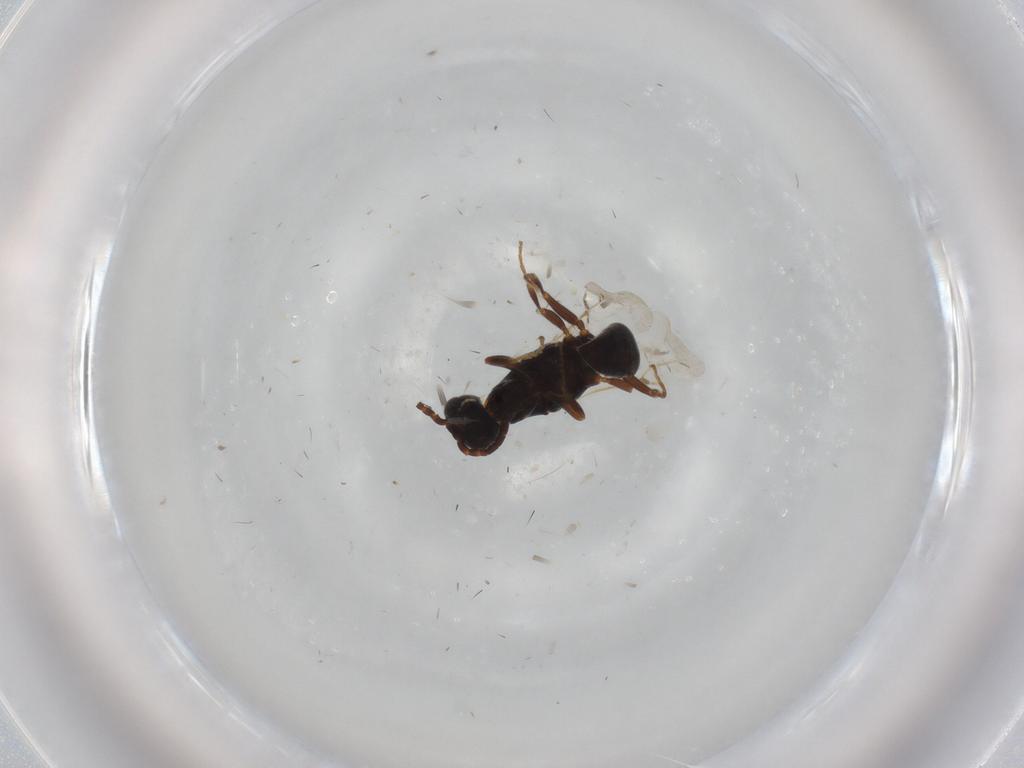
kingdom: Animalia
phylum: Arthropoda
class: Insecta
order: Hymenoptera
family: Bethylidae
